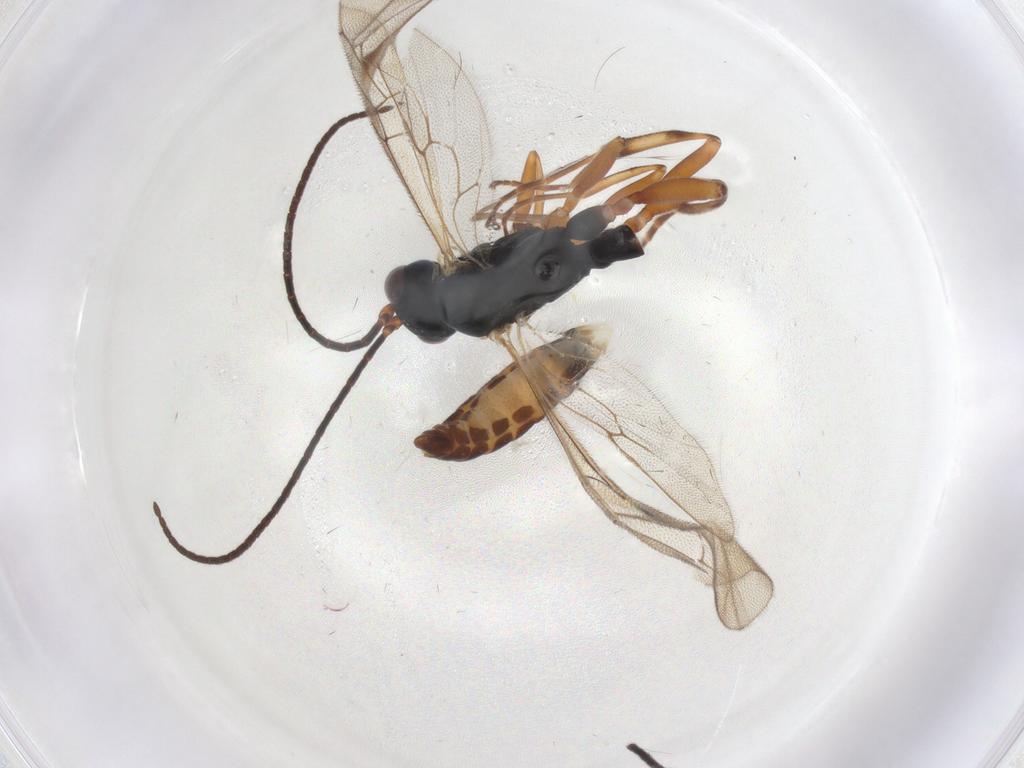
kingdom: Animalia
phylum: Arthropoda
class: Insecta
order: Hymenoptera
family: Ichneumonidae
